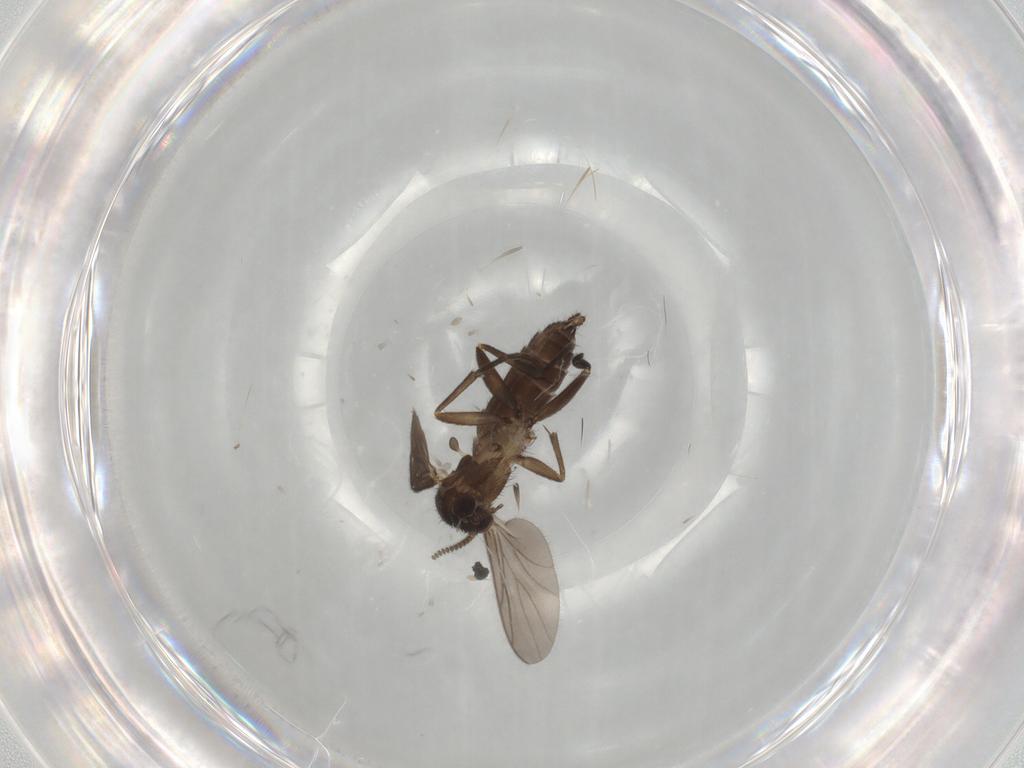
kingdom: Animalia
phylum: Arthropoda
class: Insecta
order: Diptera
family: Mycetophilidae
